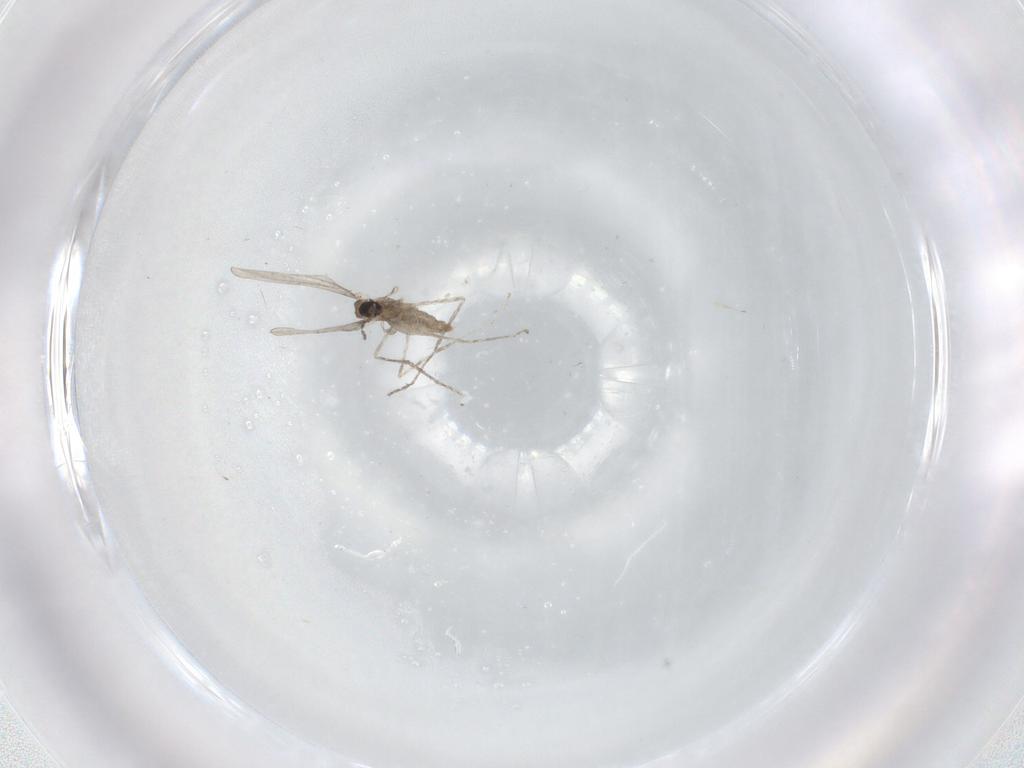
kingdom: Animalia
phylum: Arthropoda
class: Insecta
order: Diptera
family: Cecidomyiidae
